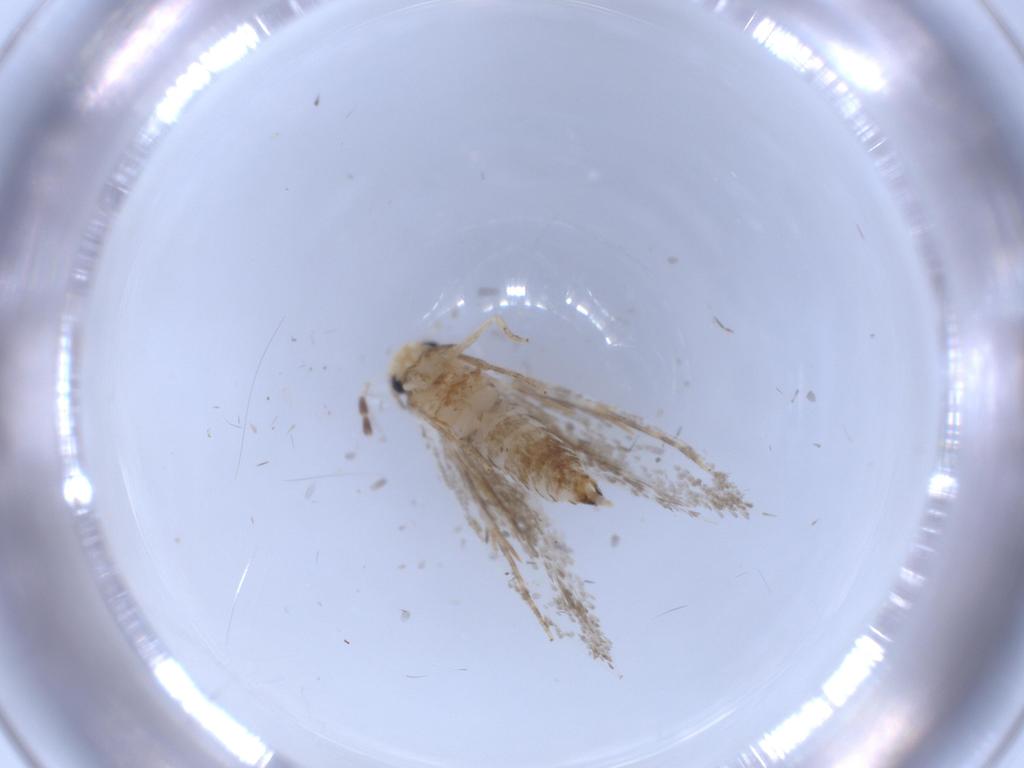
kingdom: Animalia
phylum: Arthropoda
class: Insecta
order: Lepidoptera
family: Tineidae
